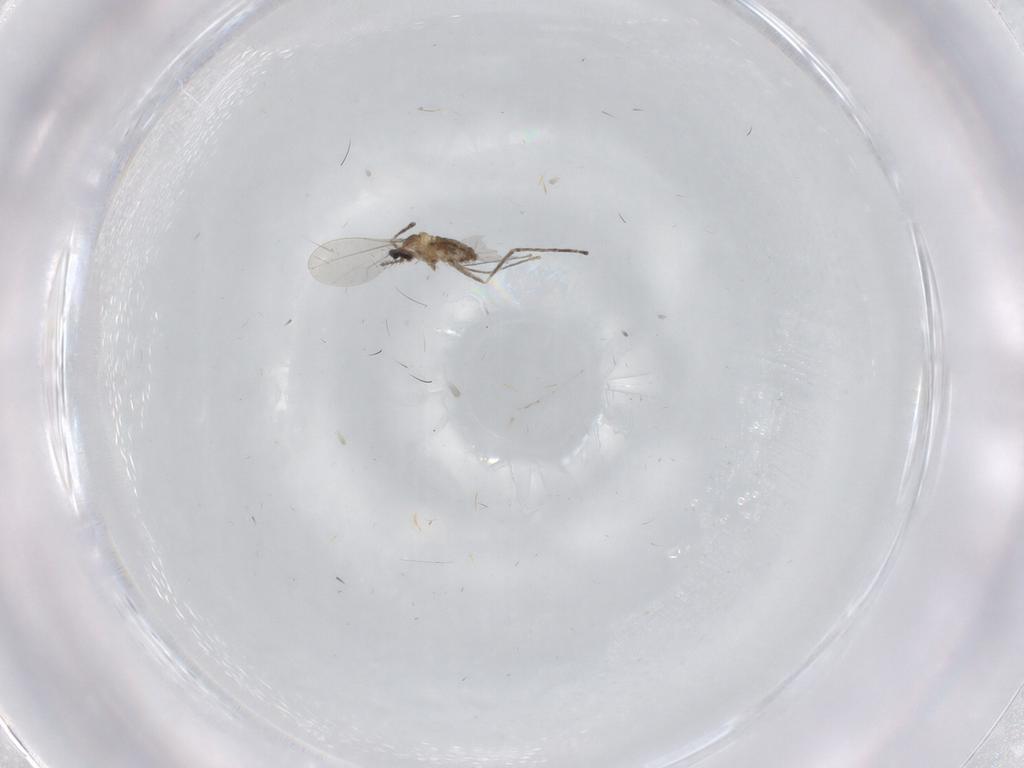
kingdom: Animalia
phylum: Arthropoda
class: Insecta
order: Diptera
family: Cecidomyiidae
